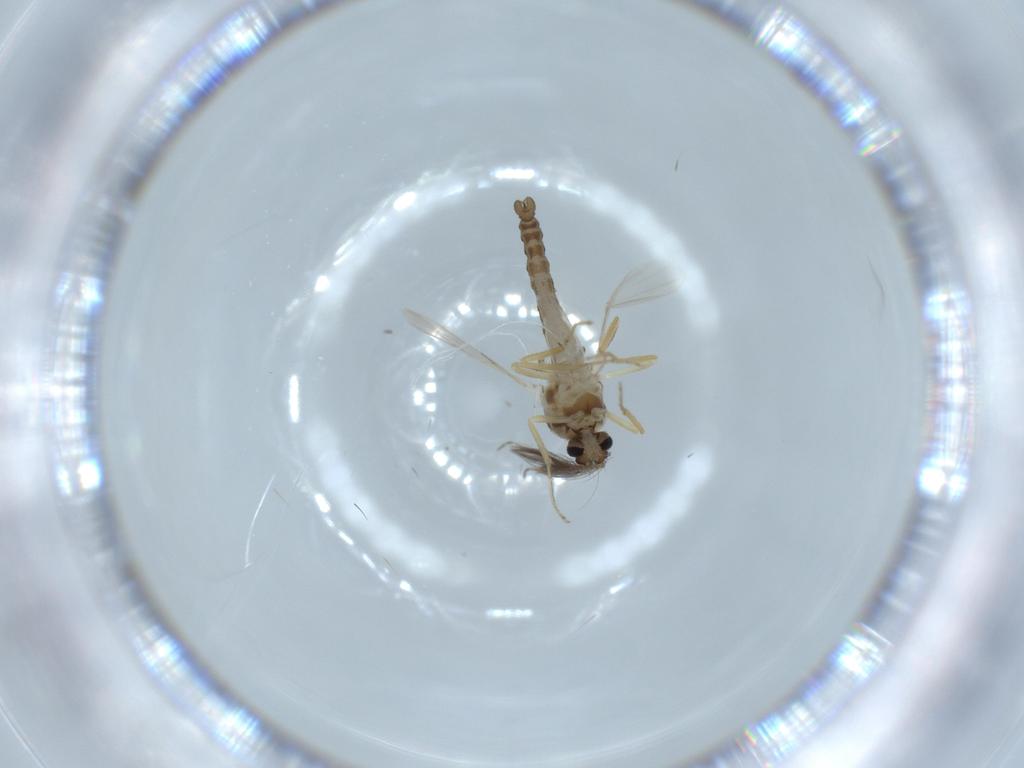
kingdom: Animalia
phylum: Arthropoda
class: Insecta
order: Diptera
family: Ceratopogonidae
